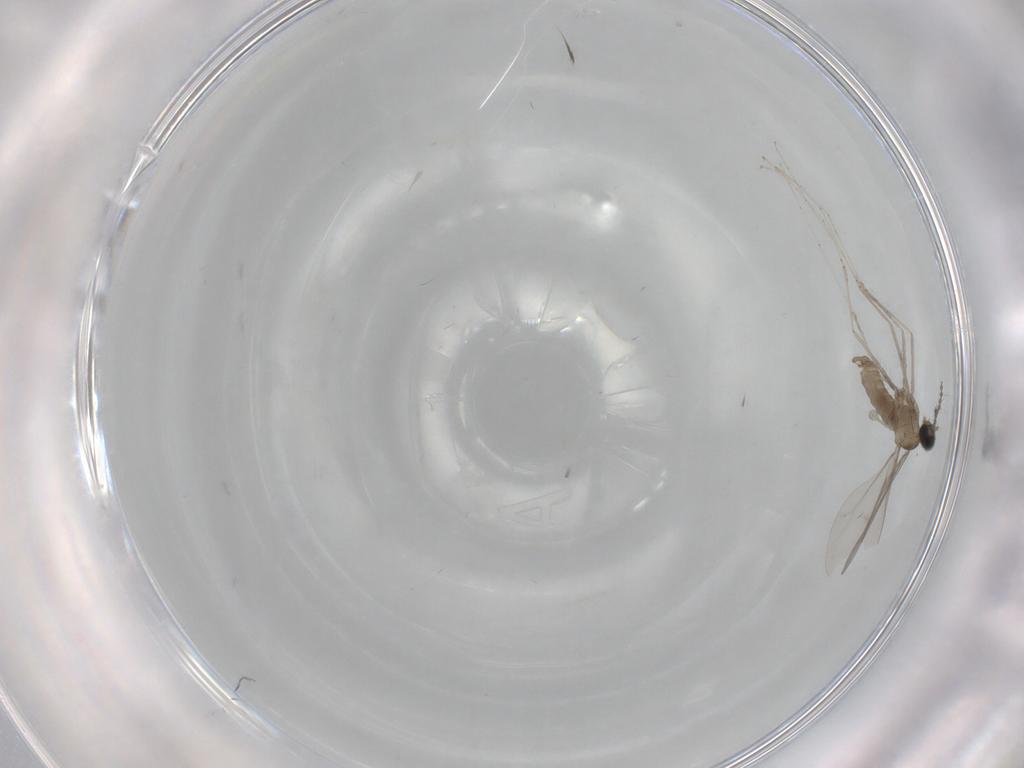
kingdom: Animalia
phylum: Arthropoda
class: Insecta
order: Diptera
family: Cecidomyiidae
